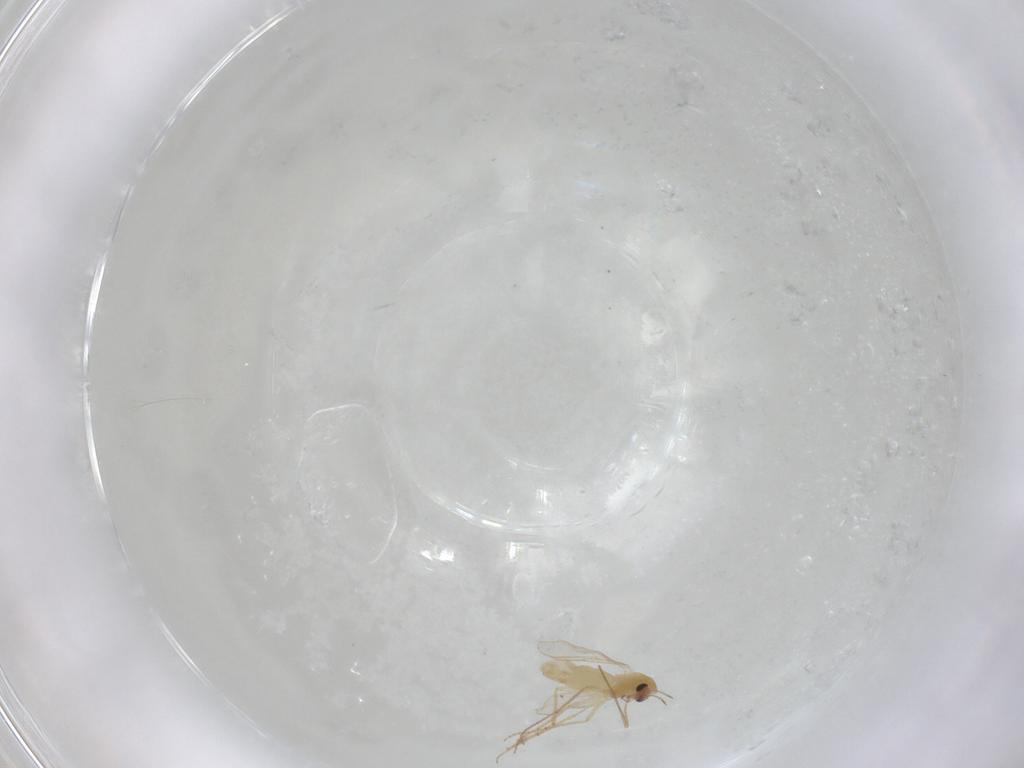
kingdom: Animalia
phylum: Arthropoda
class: Insecta
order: Diptera
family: Chironomidae
